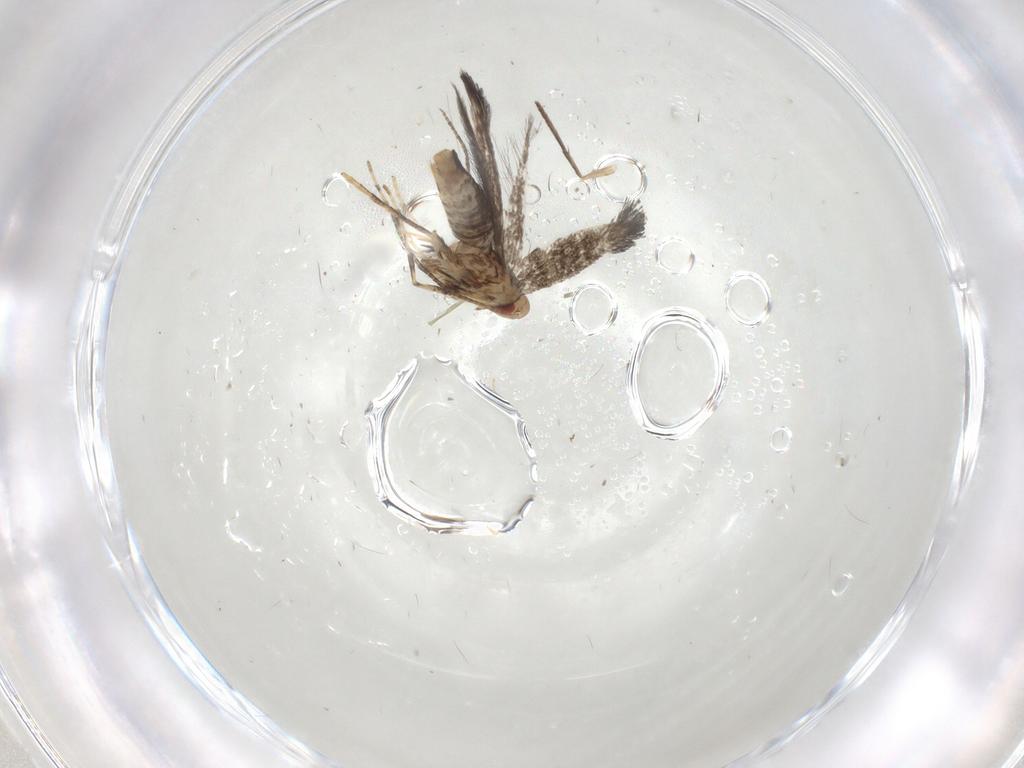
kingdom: Animalia
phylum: Arthropoda
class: Insecta
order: Lepidoptera
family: Gracillariidae
